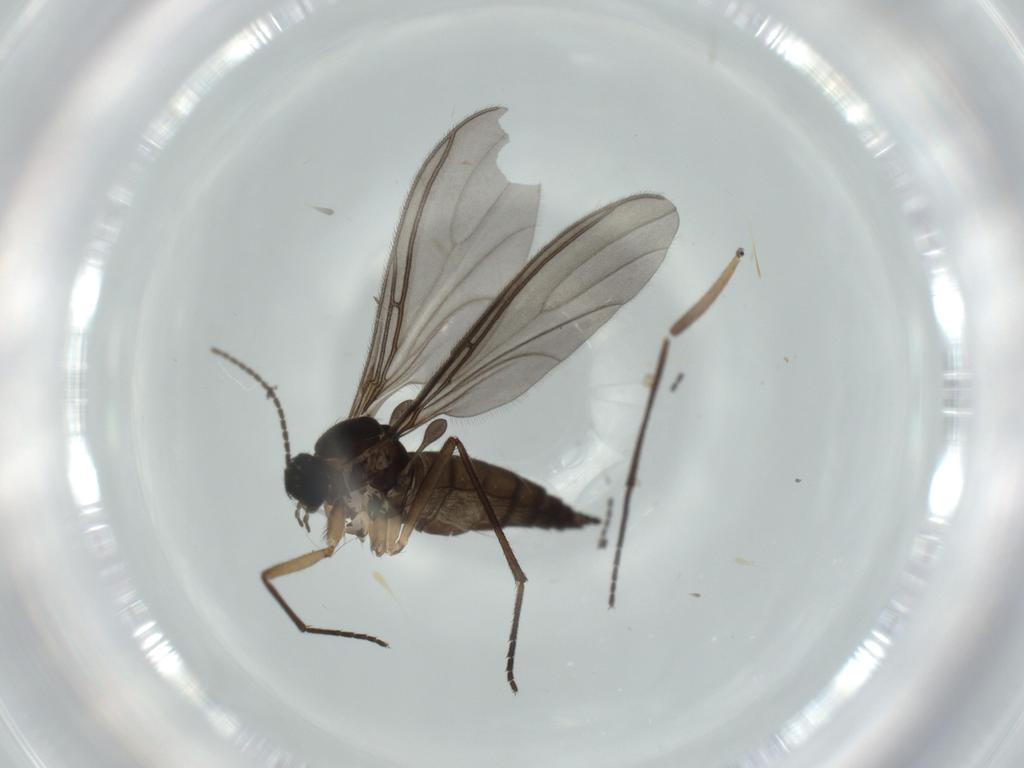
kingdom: Animalia
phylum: Arthropoda
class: Insecta
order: Diptera
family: Sciaridae
